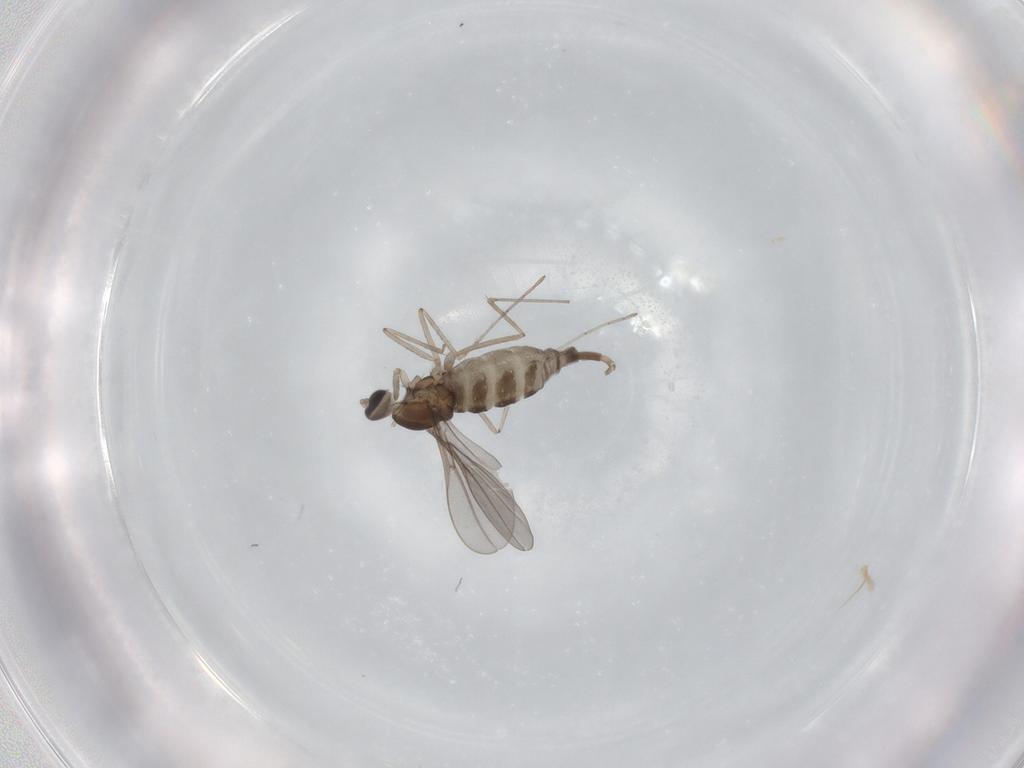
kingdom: Animalia
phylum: Arthropoda
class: Insecta
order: Diptera
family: Cecidomyiidae
